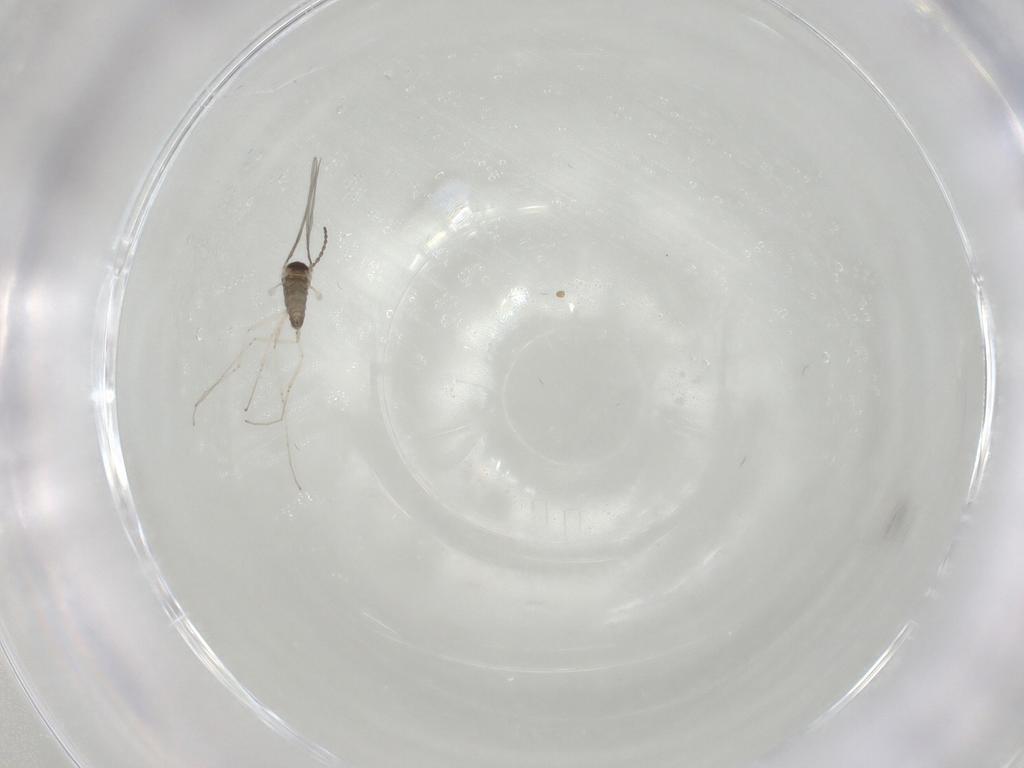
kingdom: Animalia
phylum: Arthropoda
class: Insecta
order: Diptera
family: Cecidomyiidae
